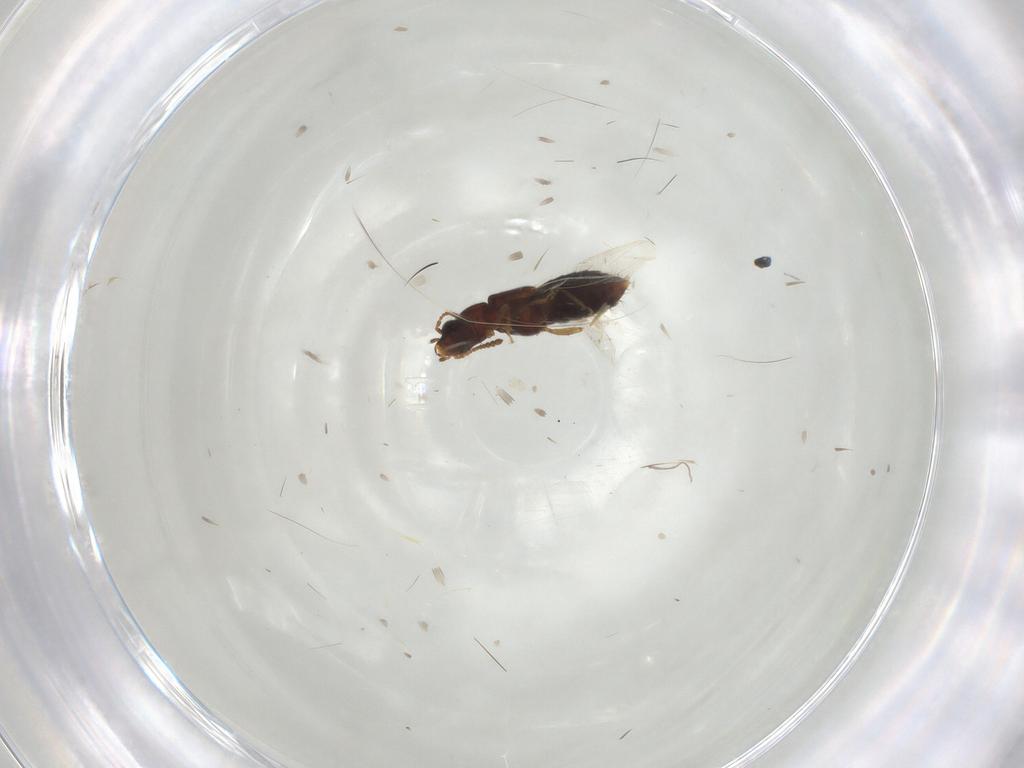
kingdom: Animalia
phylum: Arthropoda
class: Insecta
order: Coleoptera
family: Staphylinidae
